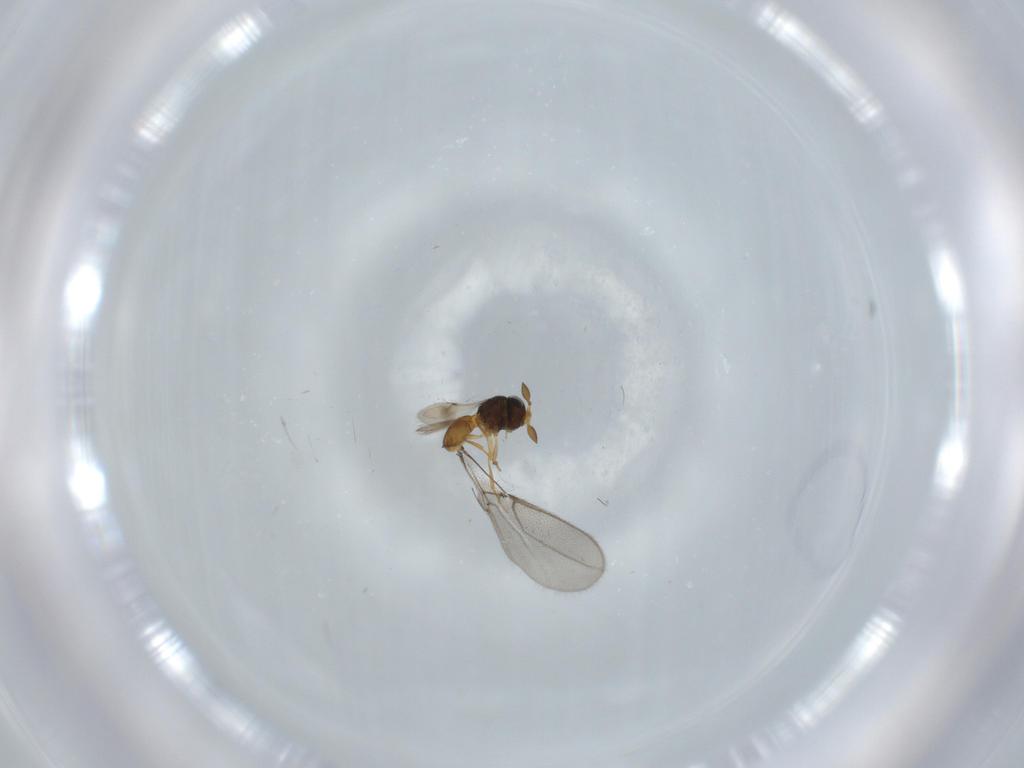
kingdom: Animalia
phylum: Arthropoda
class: Insecta
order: Hymenoptera
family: Scelionidae
